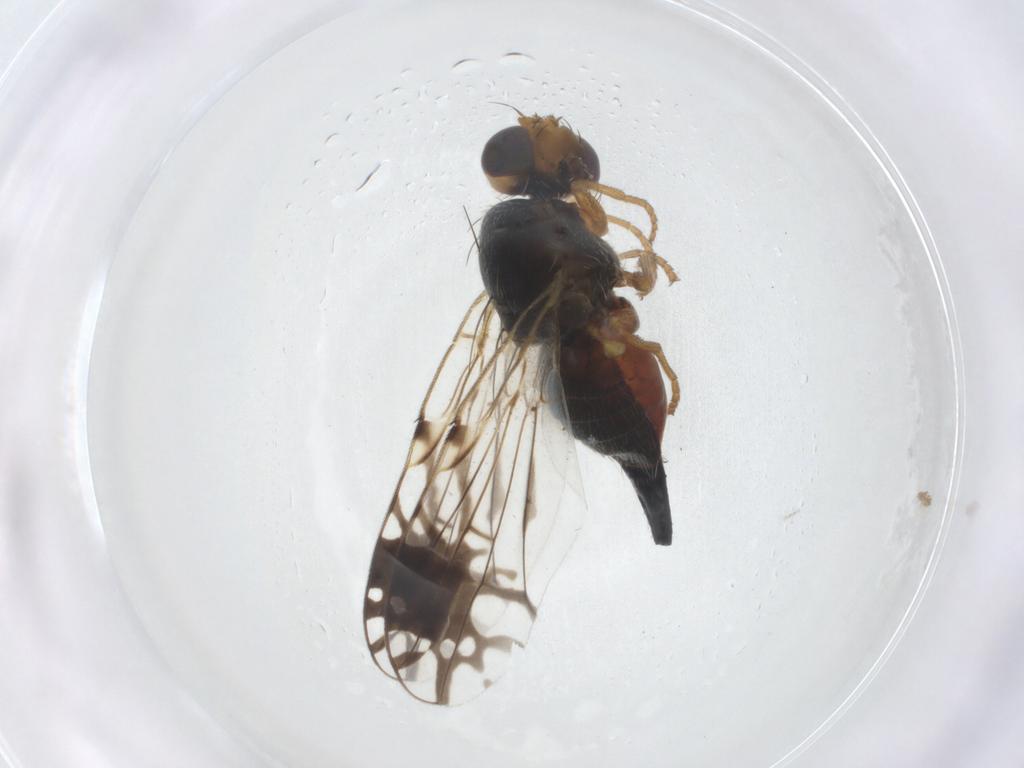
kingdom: Animalia
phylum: Arthropoda
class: Insecta
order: Diptera
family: Tephritidae
